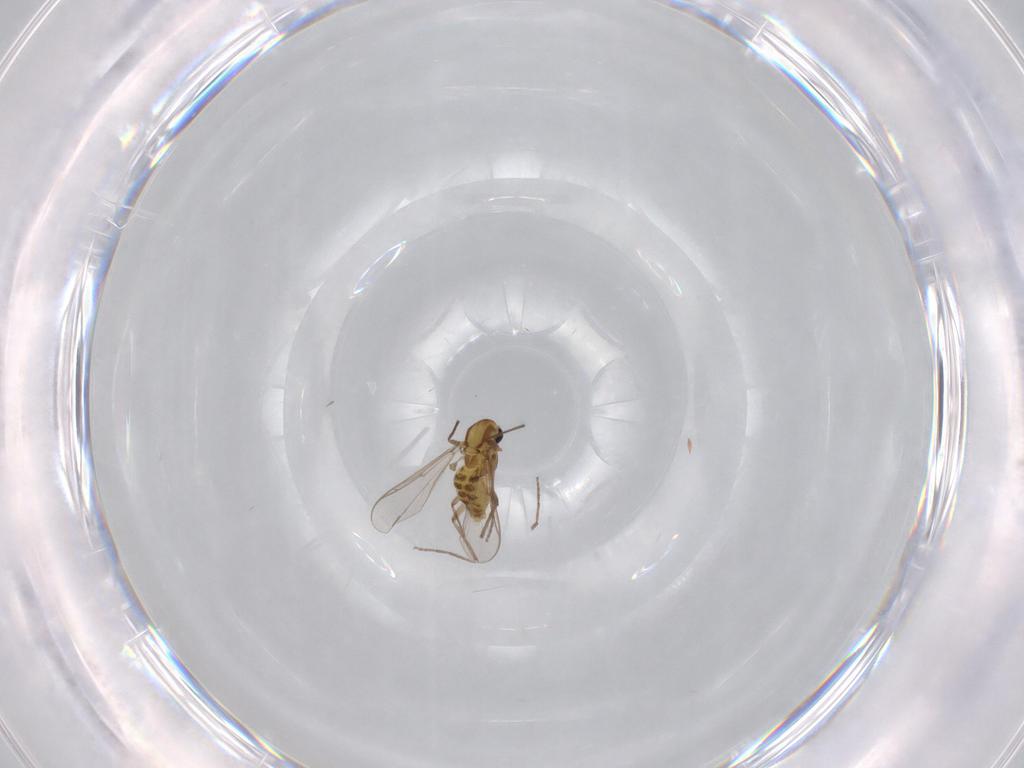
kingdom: Animalia
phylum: Arthropoda
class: Insecta
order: Diptera
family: Chironomidae
